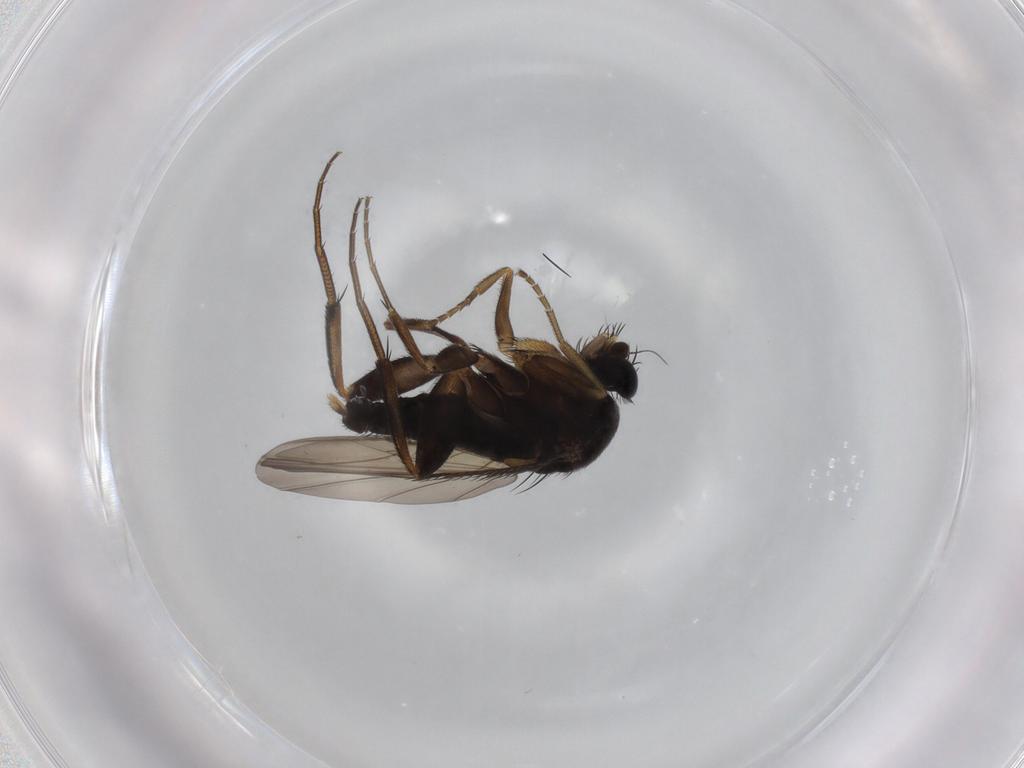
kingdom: Animalia
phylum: Arthropoda
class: Insecta
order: Diptera
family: Phoridae
